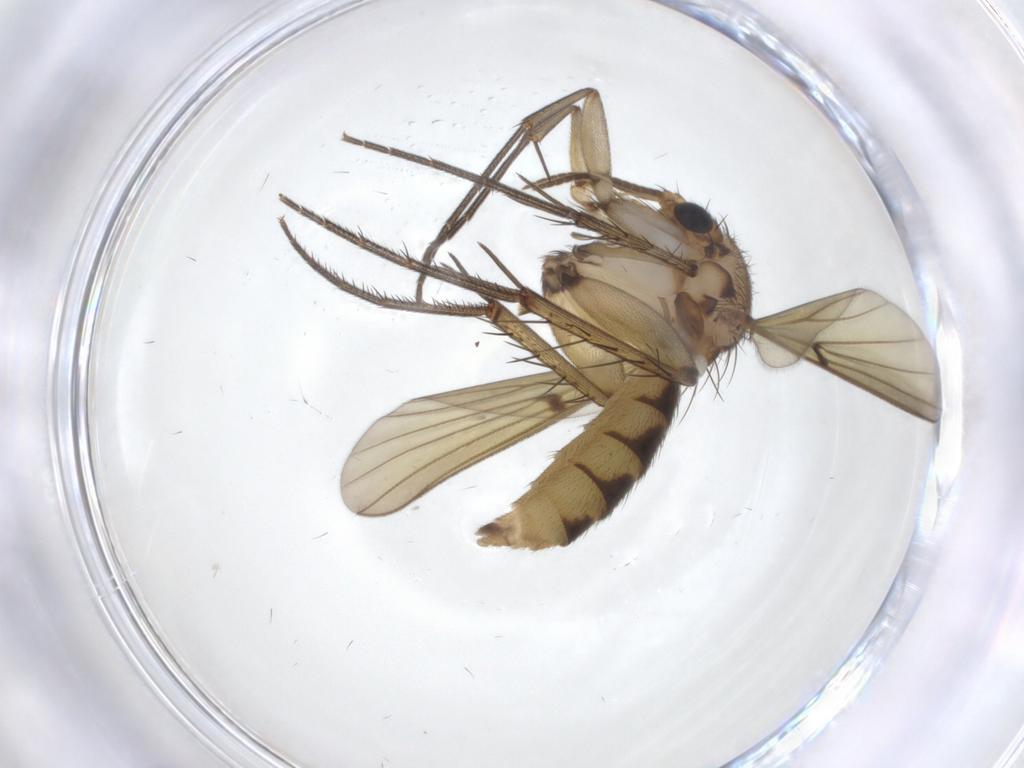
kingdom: Animalia
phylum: Arthropoda
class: Insecta
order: Diptera
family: Mycetophilidae
